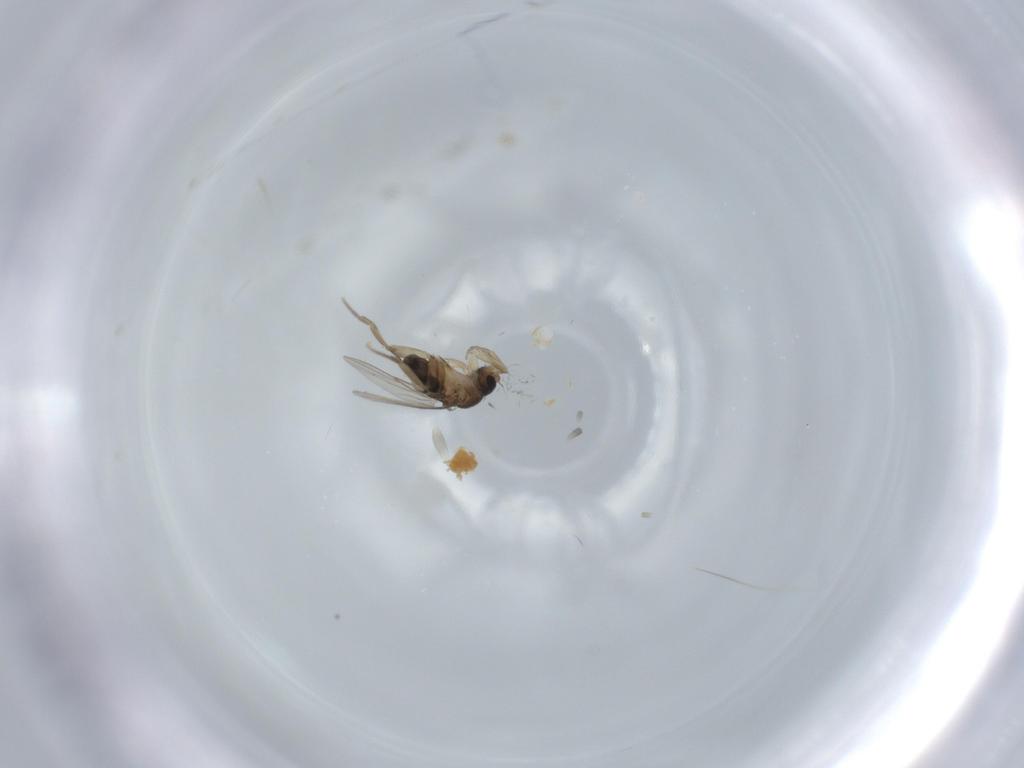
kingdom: Animalia
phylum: Arthropoda
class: Insecta
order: Diptera
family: Phoridae
